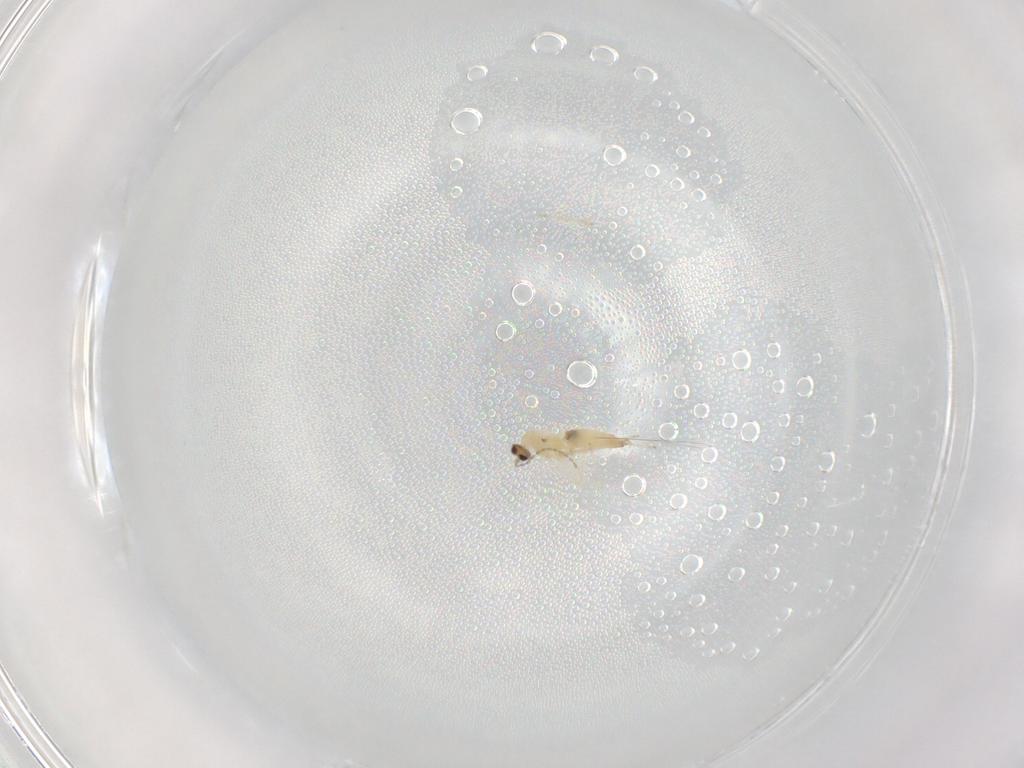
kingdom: Animalia
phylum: Arthropoda
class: Insecta
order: Diptera
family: Cecidomyiidae
